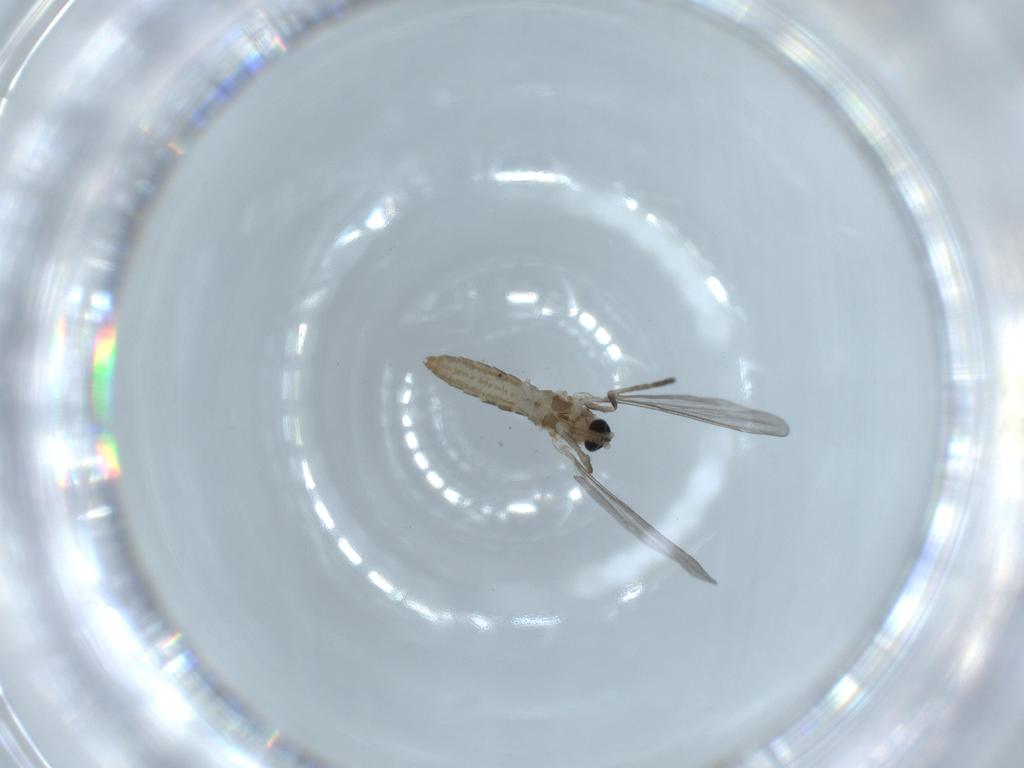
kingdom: Animalia
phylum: Arthropoda
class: Insecta
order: Diptera
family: Cecidomyiidae
